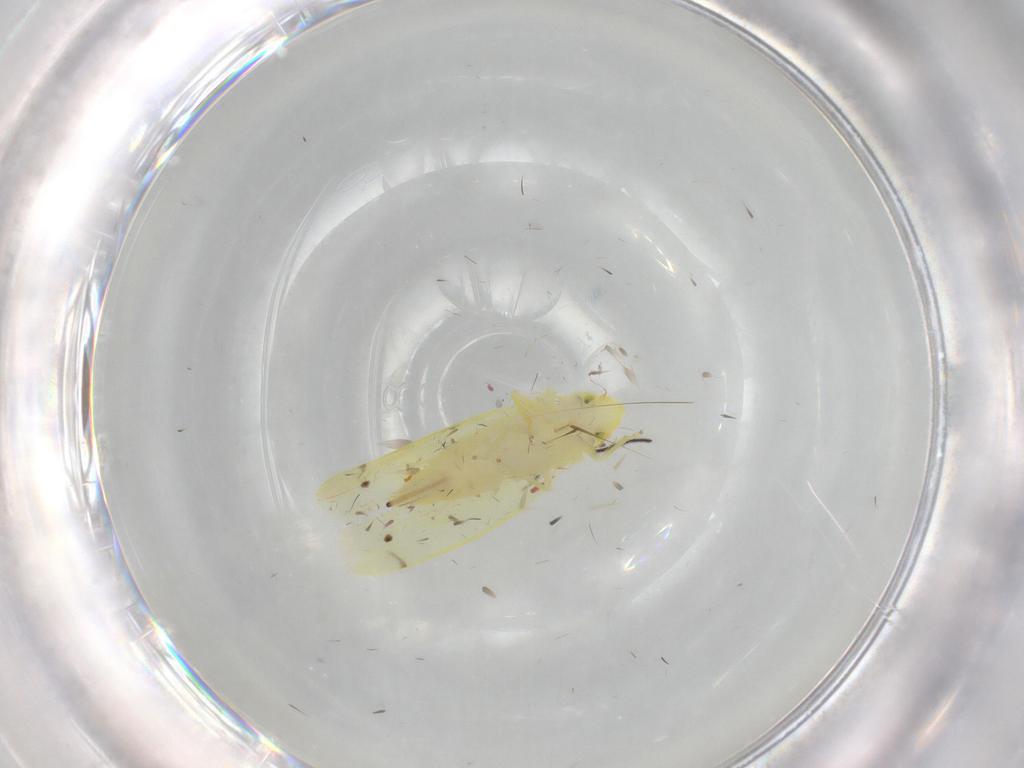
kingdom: Animalia
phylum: Arthropoda
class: Insecta
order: Hemiptera
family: Cicadellidae
